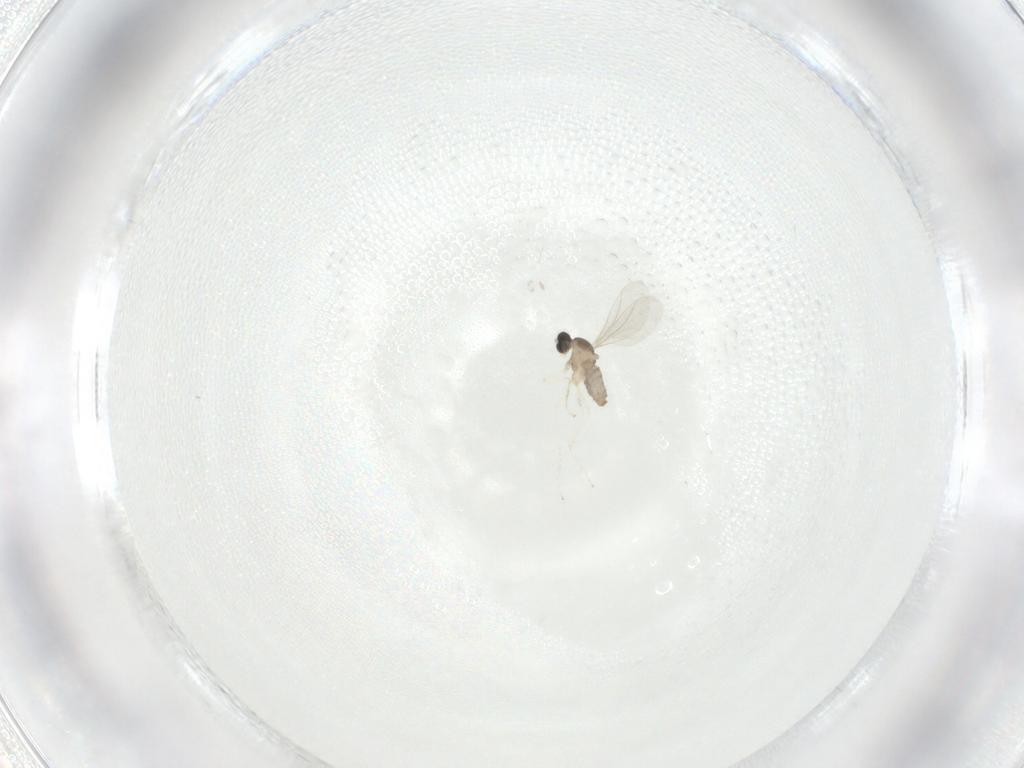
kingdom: Animalia
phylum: Arthropoda
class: Insecta
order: Diptera
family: Cecidomyiidae
